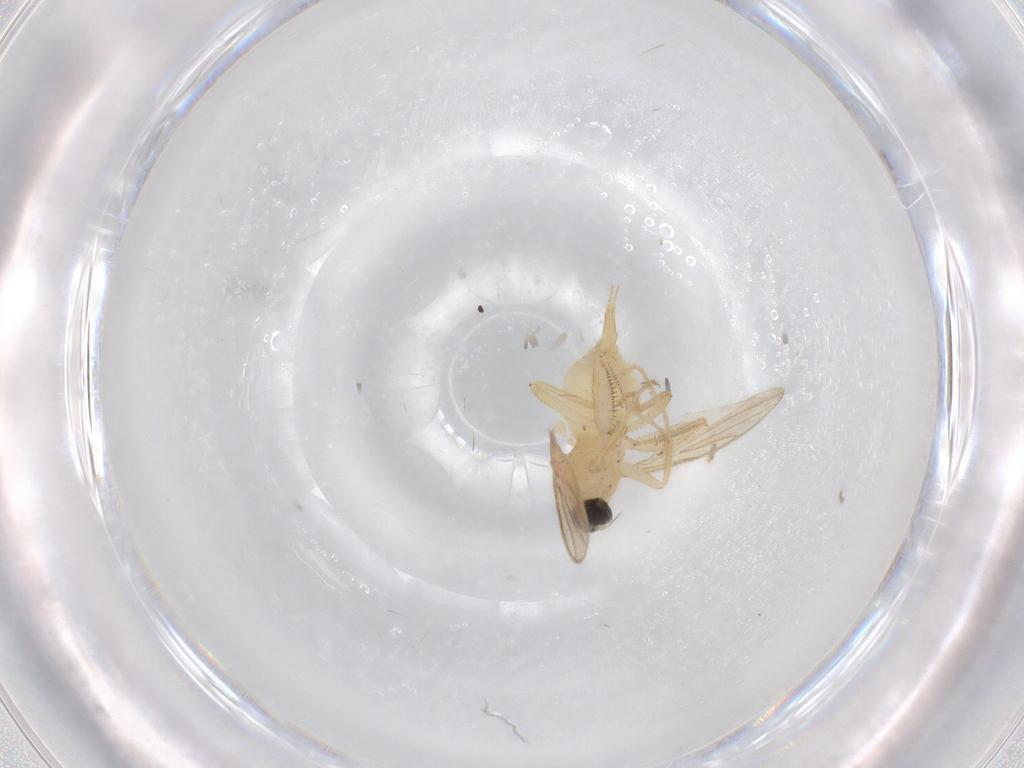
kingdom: Animalia
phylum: Arthropoda
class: Insecta
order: Diptera
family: Hybotidae
